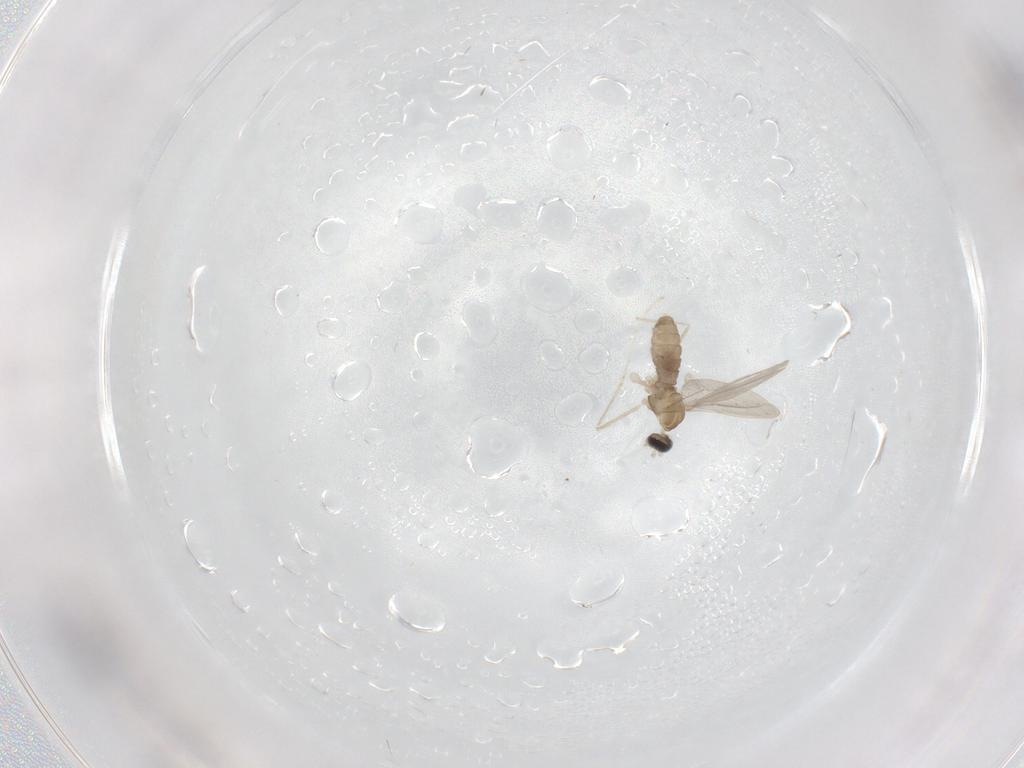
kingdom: Animalia
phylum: Arthropoda
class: Insecta
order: Diptera
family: Cecidomyiidae
